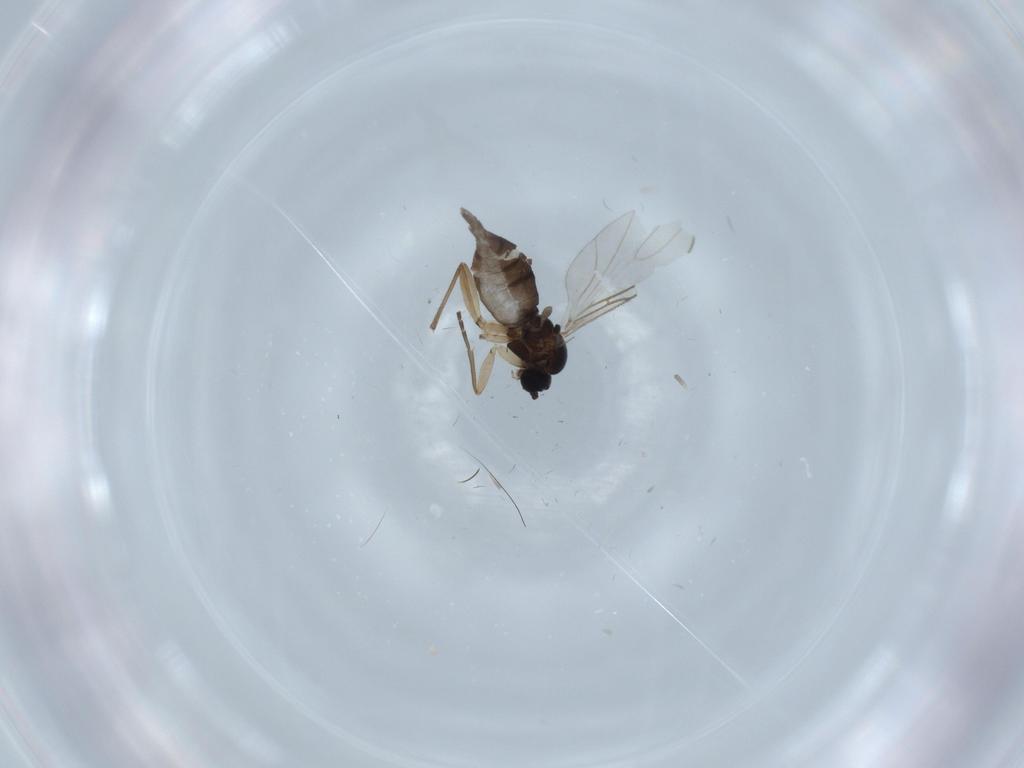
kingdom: Animalia
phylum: Arthropoda
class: Insecta
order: Diptera
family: Sciaridae
